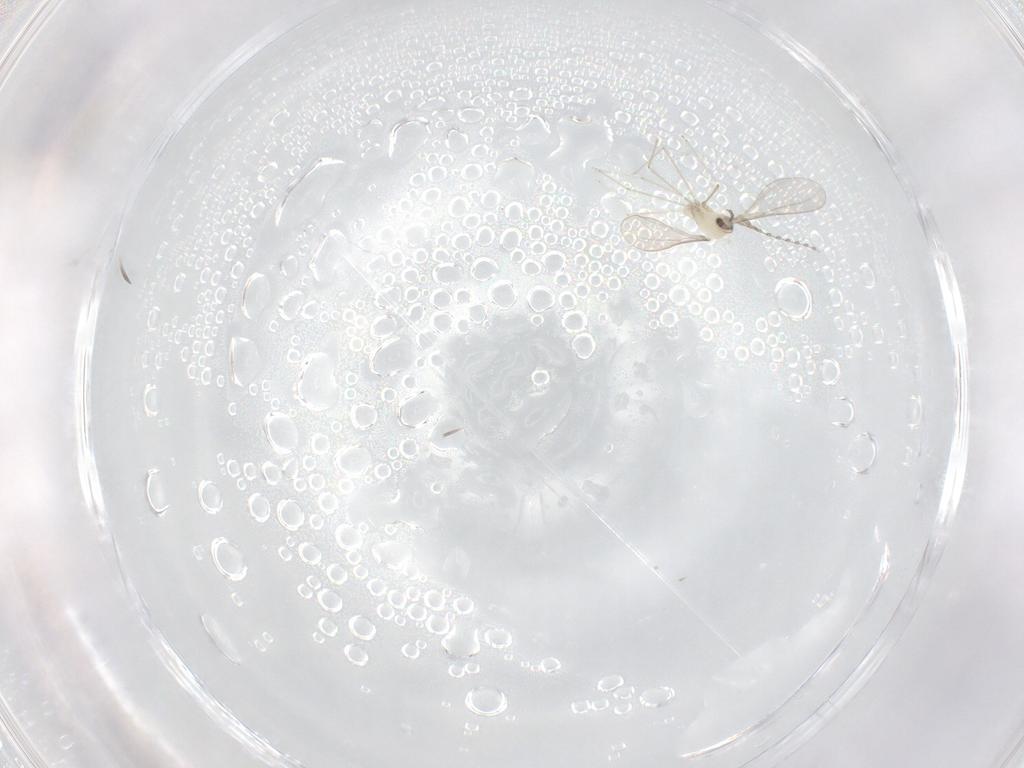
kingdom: Animalia
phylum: Arthropoda
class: Insecta
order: Diptera
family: Cecidomyiidae
